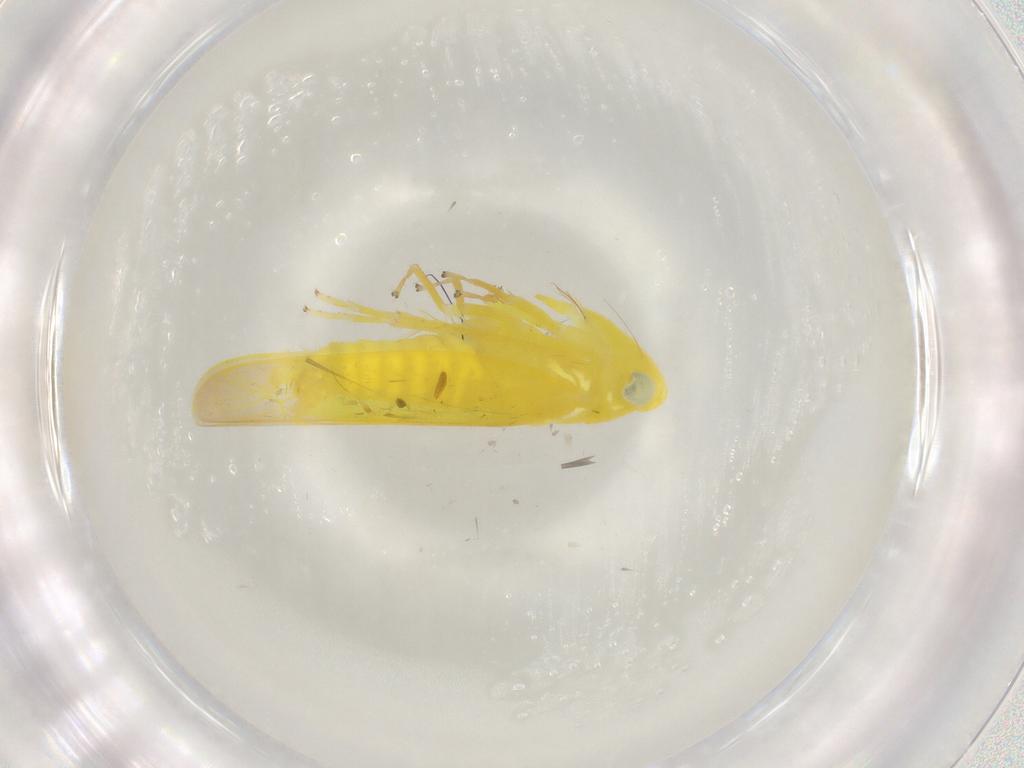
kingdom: Animalia
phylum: Arthropoda
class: Insecta
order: Hemiptera
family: Cicadellidae
